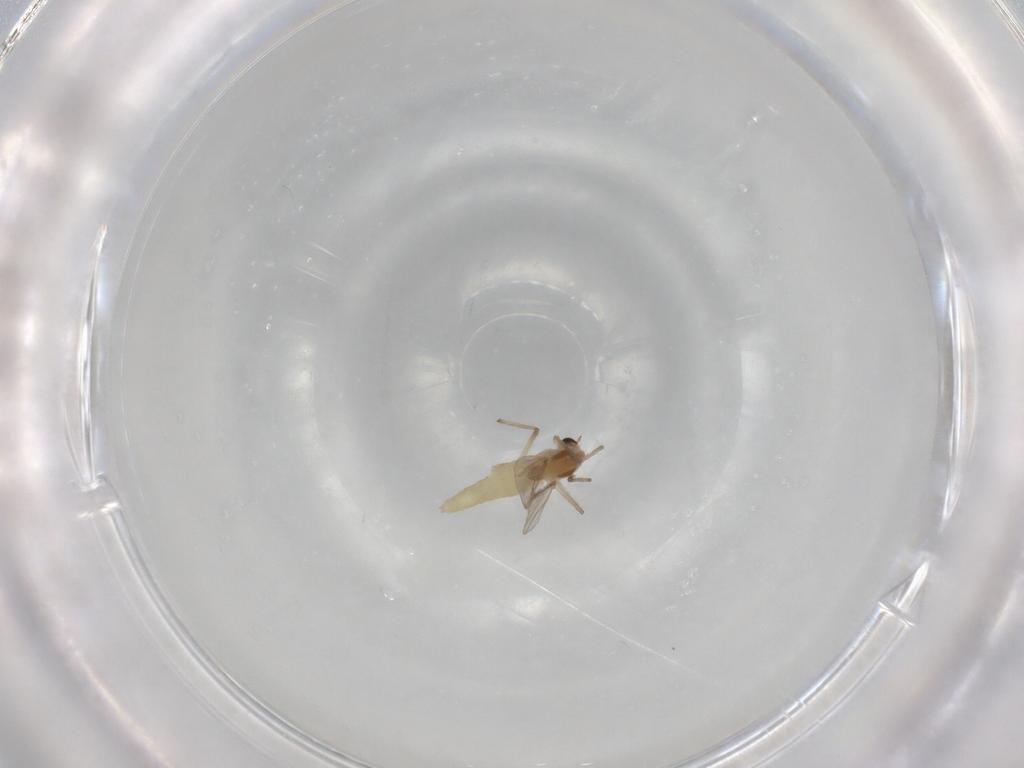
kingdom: Animalia
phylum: Arthropoda
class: Insecta
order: Diptera
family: Chironomidae
